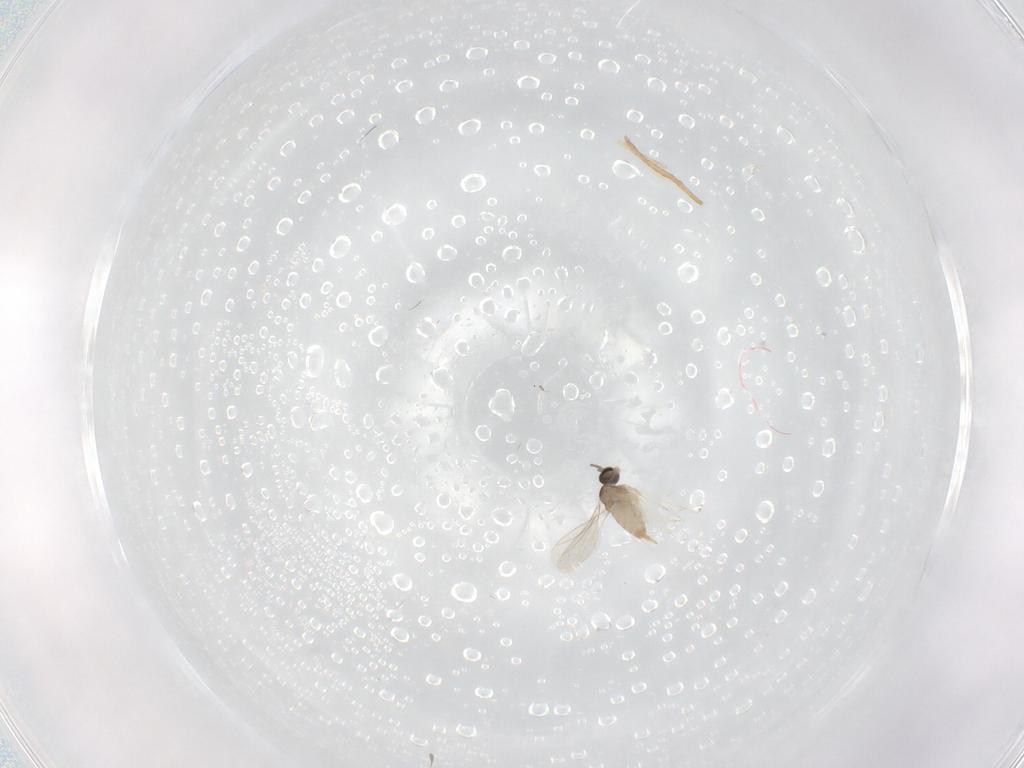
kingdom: Animalia
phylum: Arthropoda
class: Insecta
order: Diptera
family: Cecidomyiidae
